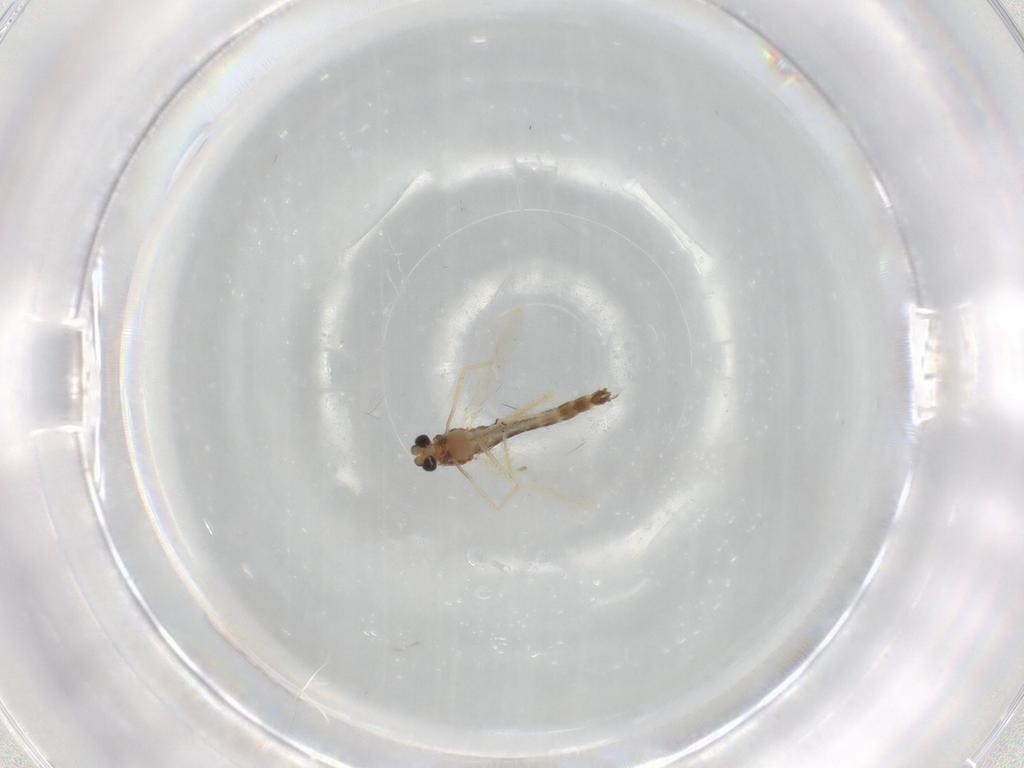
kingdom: Animalia
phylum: Arthropoda
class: Insecta
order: Diptera
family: Chironomidae
